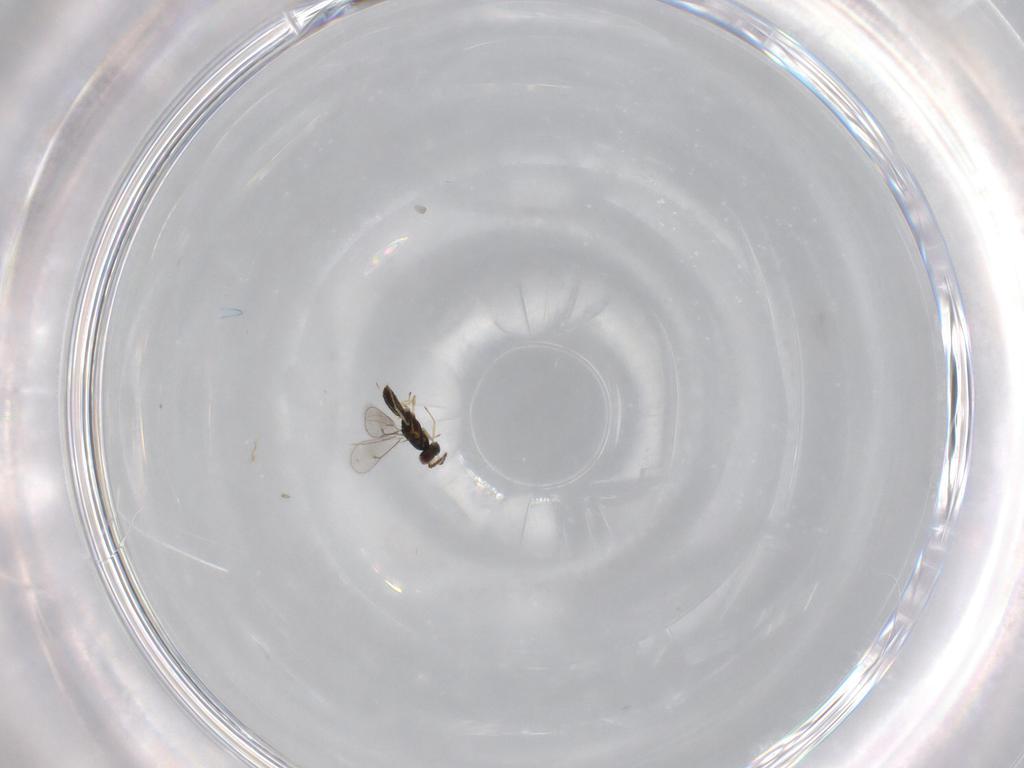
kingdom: Animalia
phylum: Arthropoda
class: Insecta
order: Hymenoptera
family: Eulophidae
